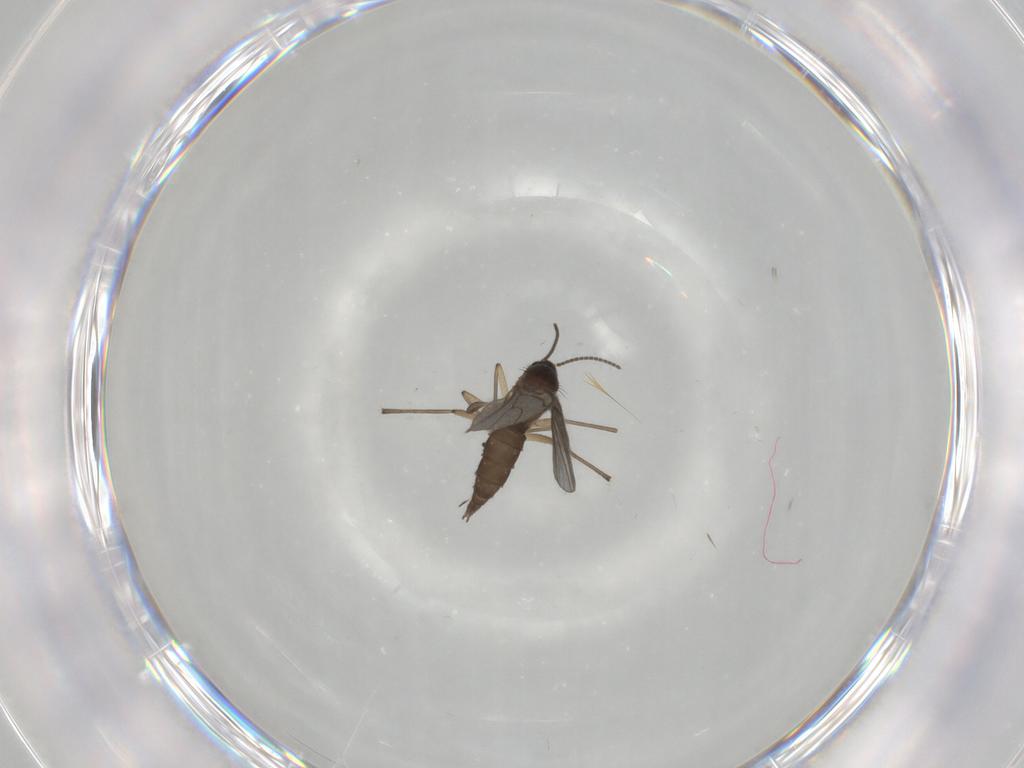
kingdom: Animalia
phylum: Arthropoda
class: Insecta
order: Diptera
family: Sciaridae
